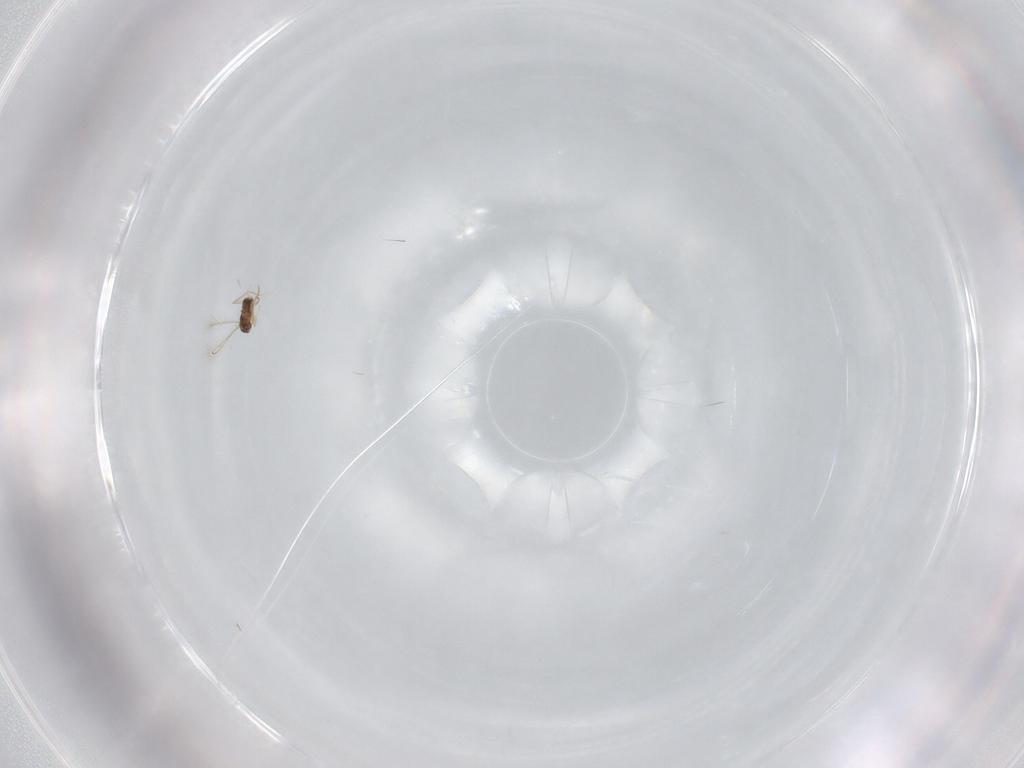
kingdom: Animalia
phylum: Arthropoda
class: Insecta
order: Hymenoptera
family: Mymaridae
